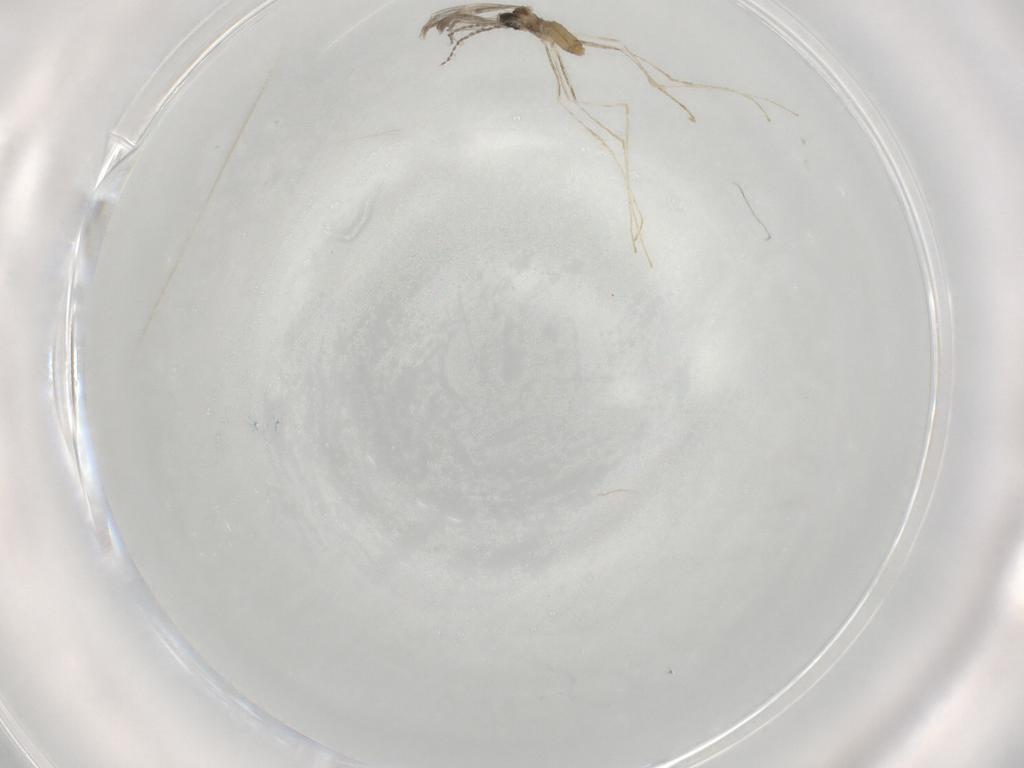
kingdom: Animalia
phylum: Arthropoda
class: Insecta
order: Diptera
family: Cecidomyiidae
